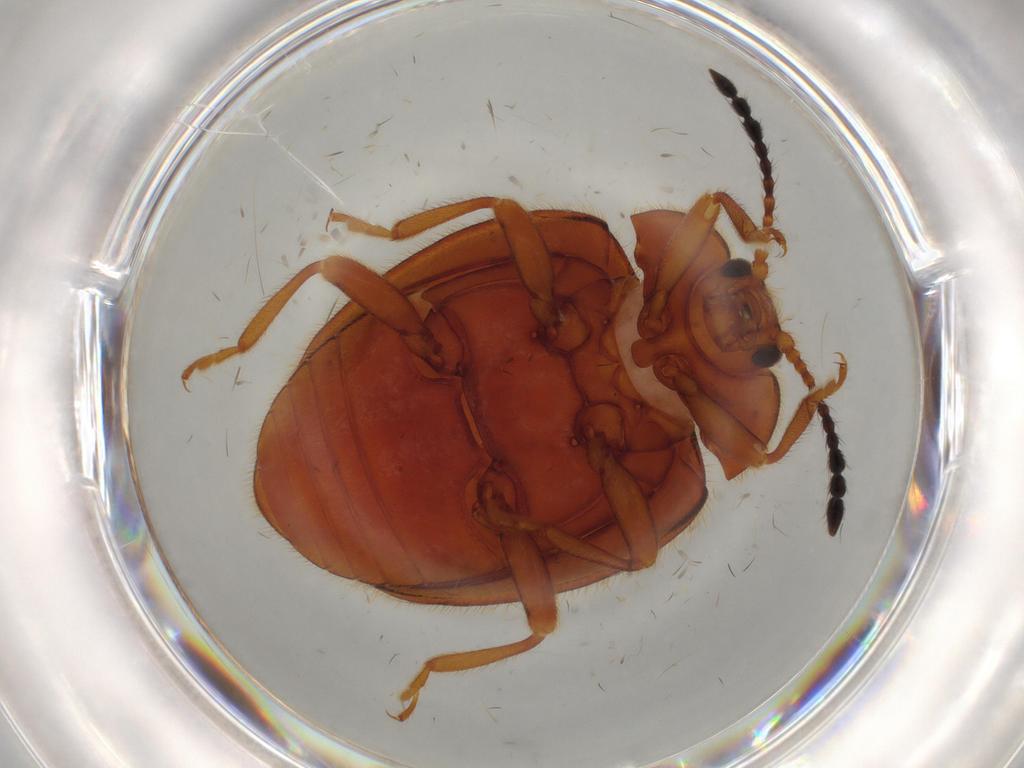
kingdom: Animalia
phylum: Arthropoda
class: Insecta
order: Coleoptera
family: Endomychidae
